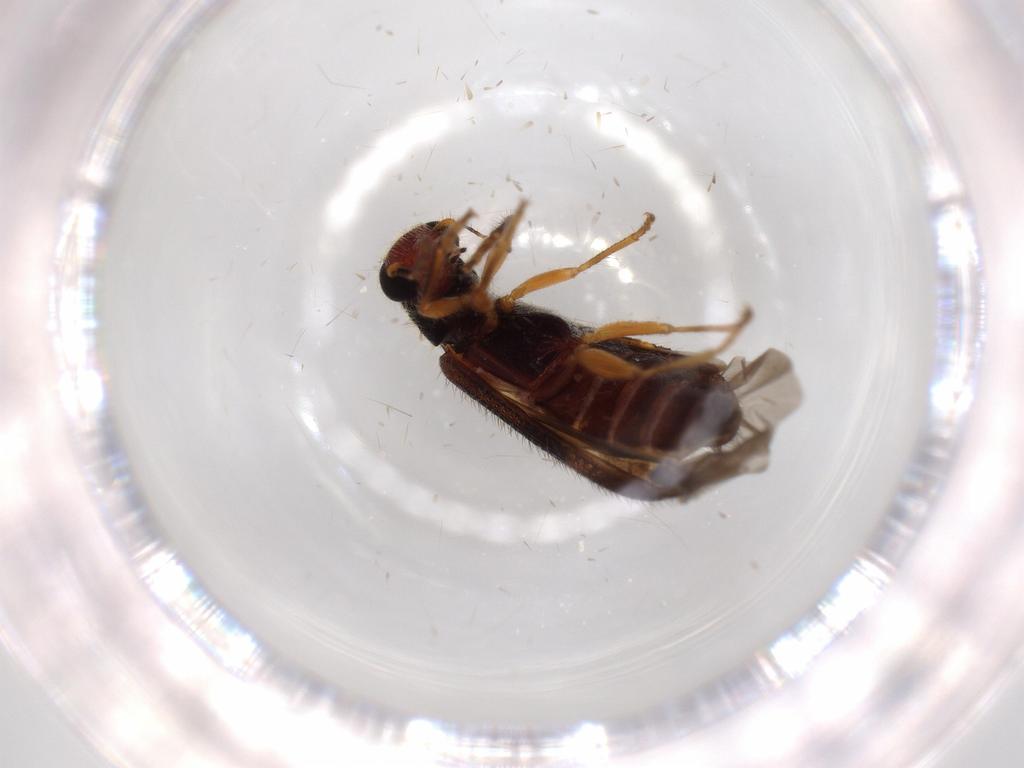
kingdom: Animalia
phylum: Arthropoda
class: Insecta
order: Coleoptera
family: Cleridae
